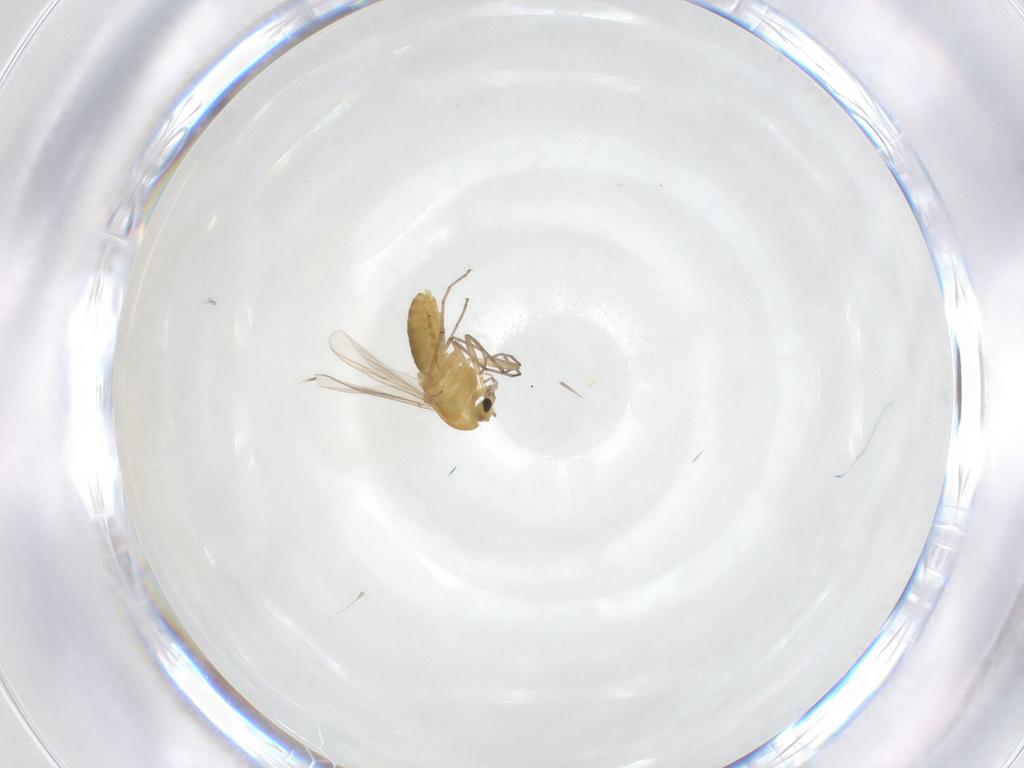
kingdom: Animalia
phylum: Arthropoda
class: Insecta
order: Diptera
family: Chironomidae
